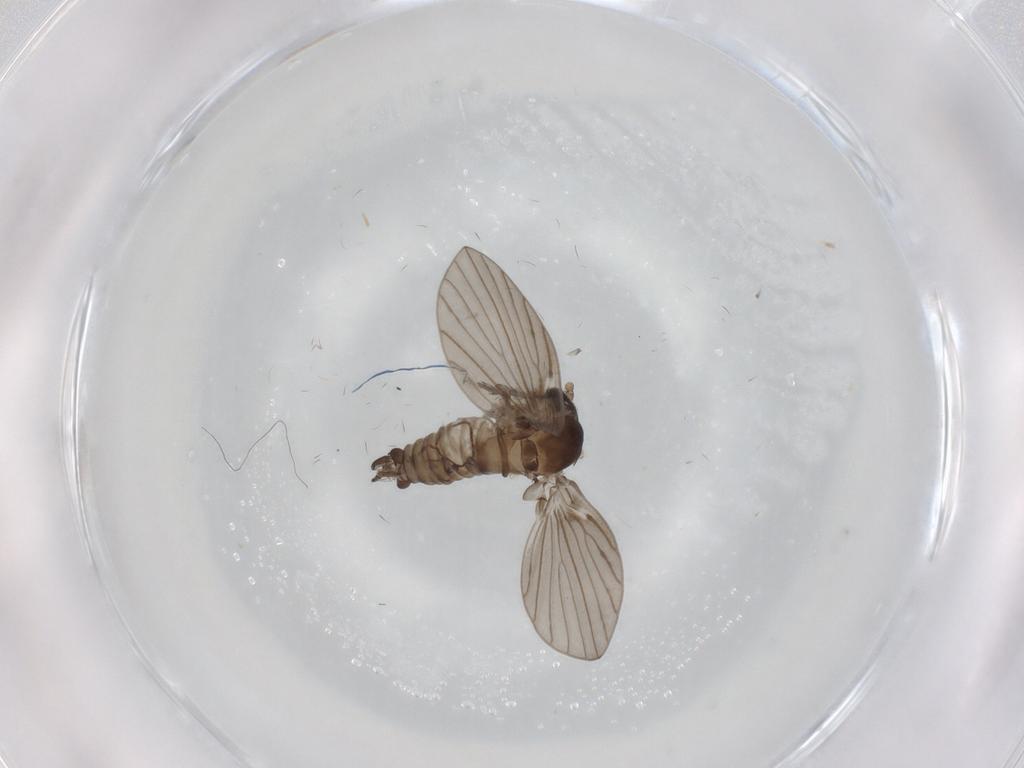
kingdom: Animalia
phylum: Arthropoda
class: Insecta
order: Diptera
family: Psychodidae
